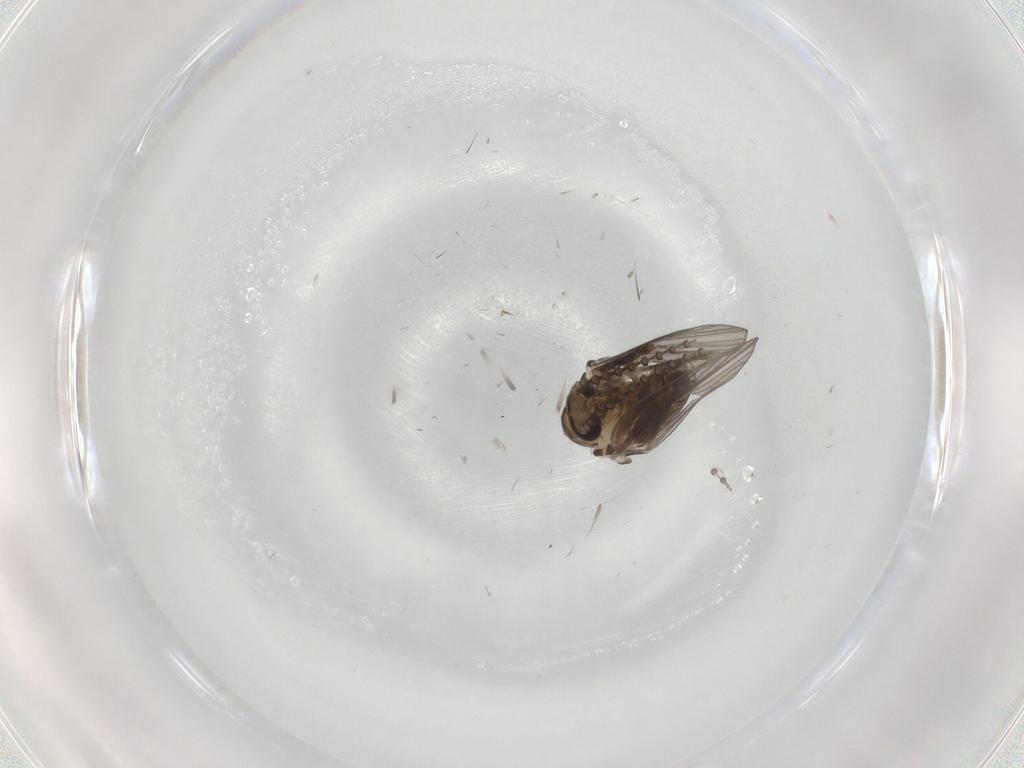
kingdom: Animalia
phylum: Arthropoda
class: Insecta
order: Diptera
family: Psychodidae
